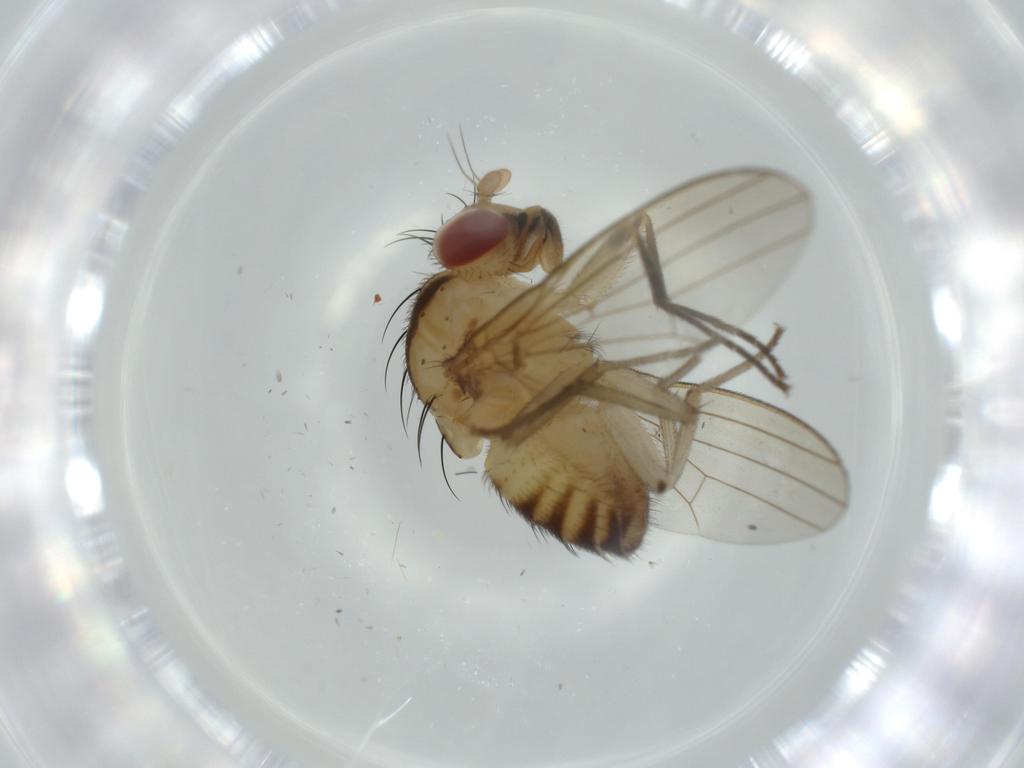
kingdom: Animalia
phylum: Arthropoda
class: Insecta
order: Diptera
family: Lauxaniidae
